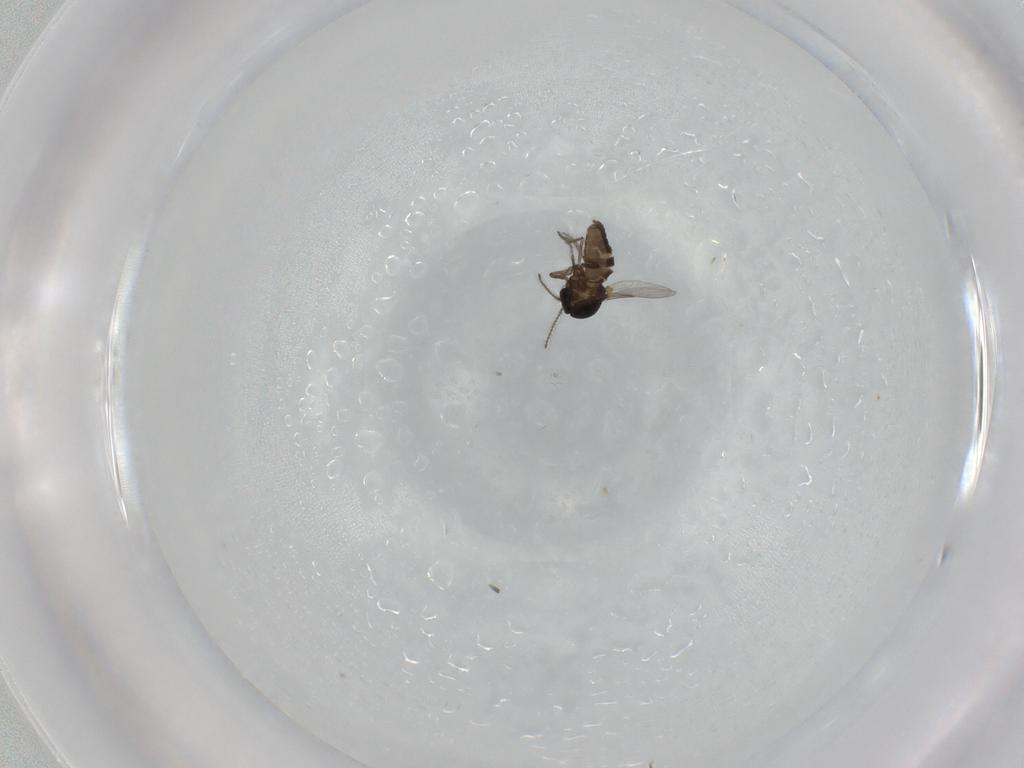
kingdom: Animalia
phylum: Arthropoda
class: Insecta
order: Diptera
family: Ceratopogonidae
